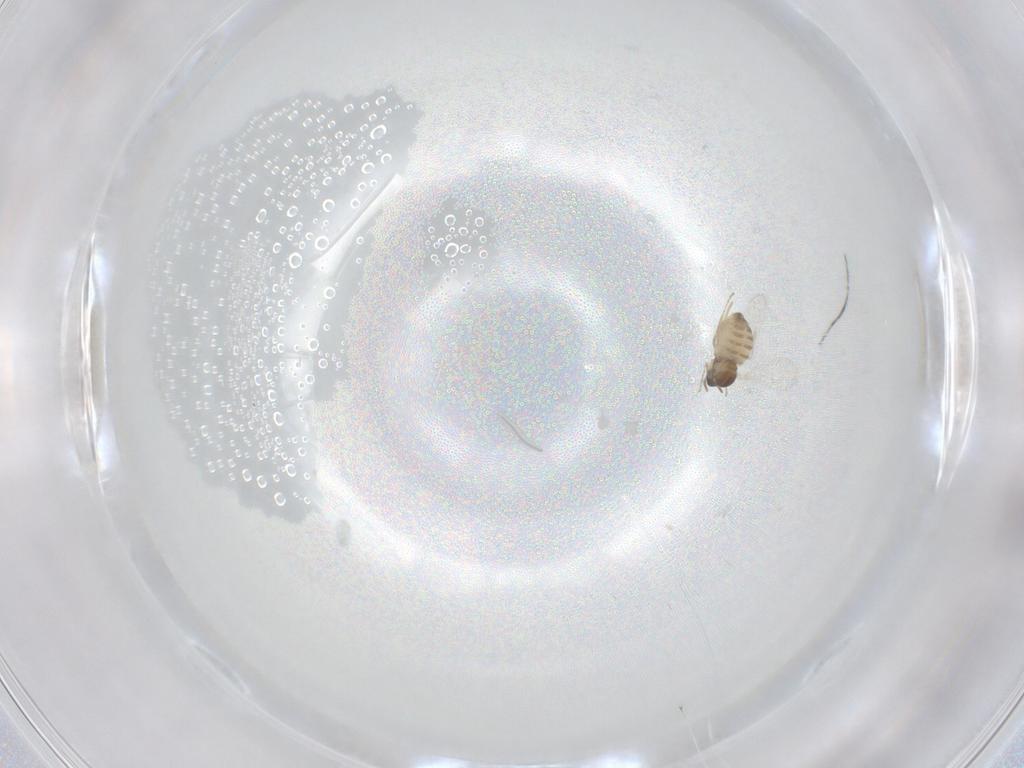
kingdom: Animalia
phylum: Arthropoda
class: Insecta
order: Diptera
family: Cecidomyiidae
